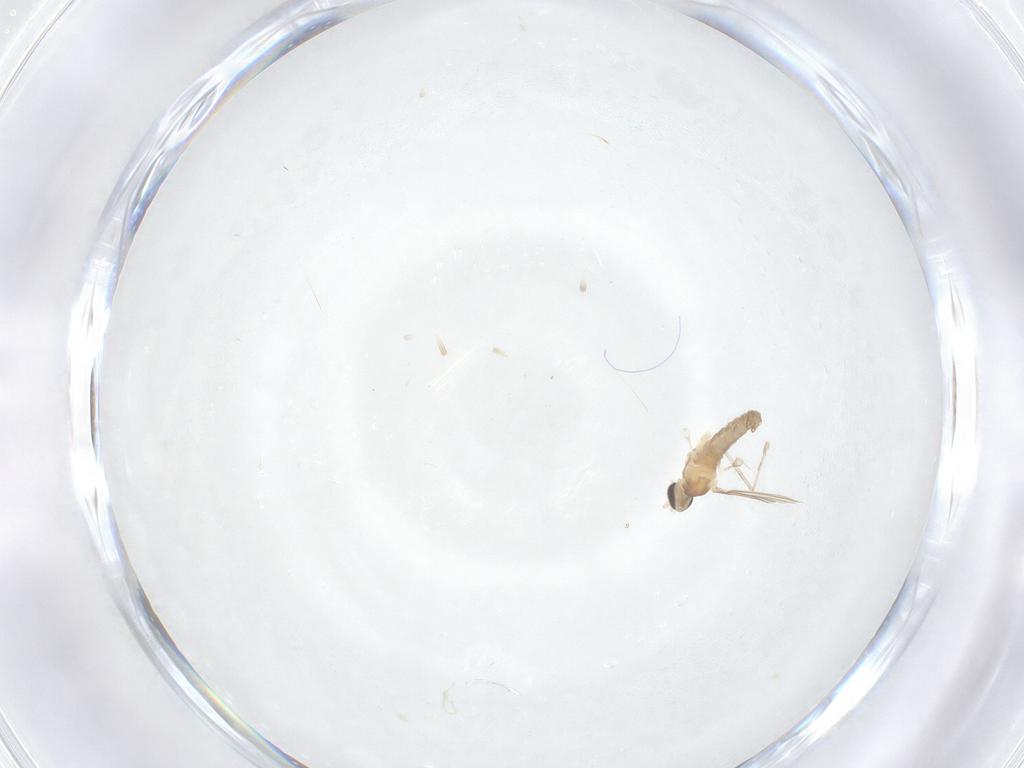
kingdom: Animalia
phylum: Arthropoda
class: Insecta
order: Diptera
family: Cecidomyiidae
